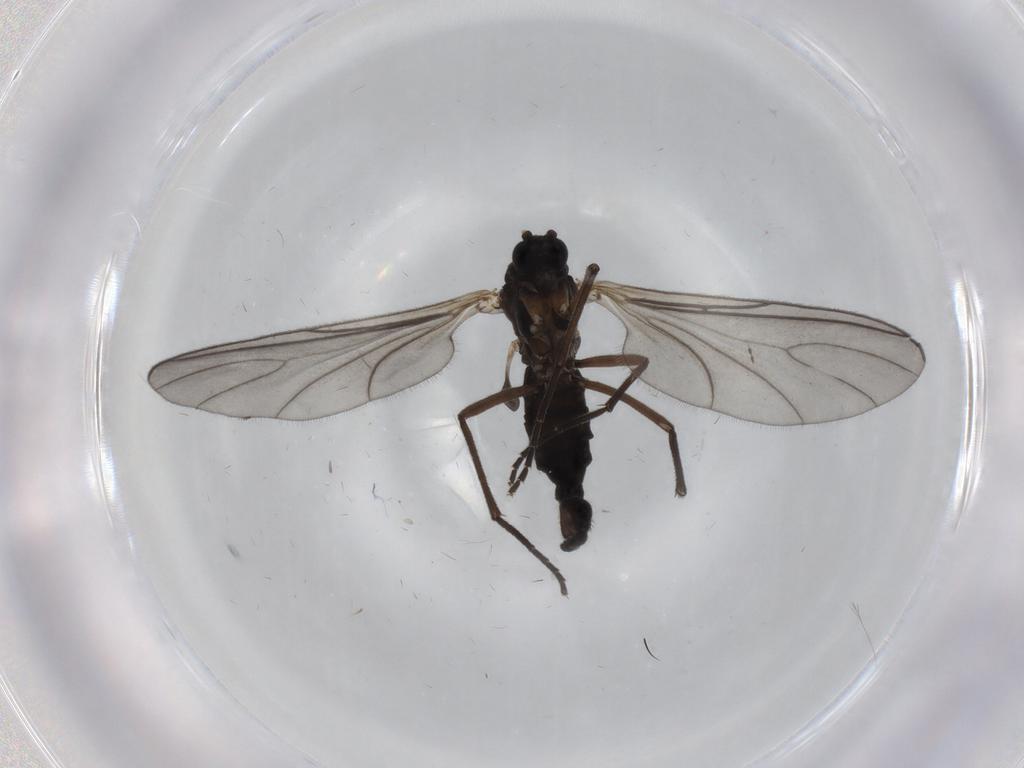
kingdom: Animalia
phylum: Arthropoda
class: Insecta
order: Diptera
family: Sciaridae
